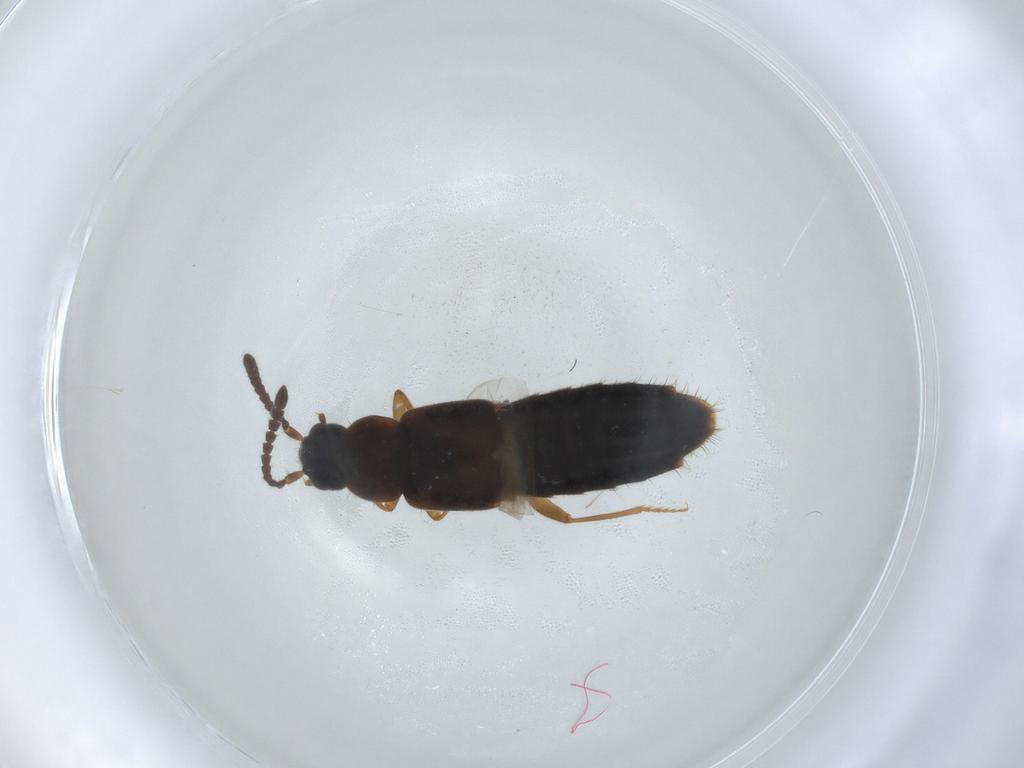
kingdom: Animalia
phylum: Arthropoda
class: Insecta
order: Coleoptera
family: Staphylinidae
